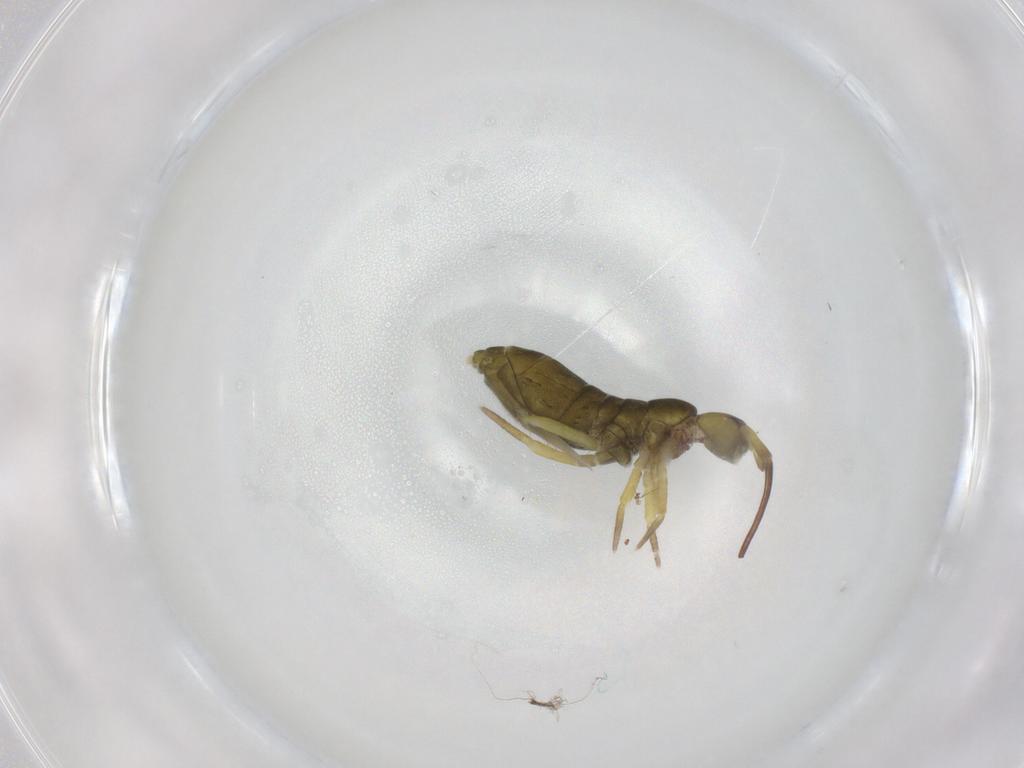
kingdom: Animalia
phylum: Arthropoda
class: Collembola
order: Entomobryomorpha
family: Tomoceridae
